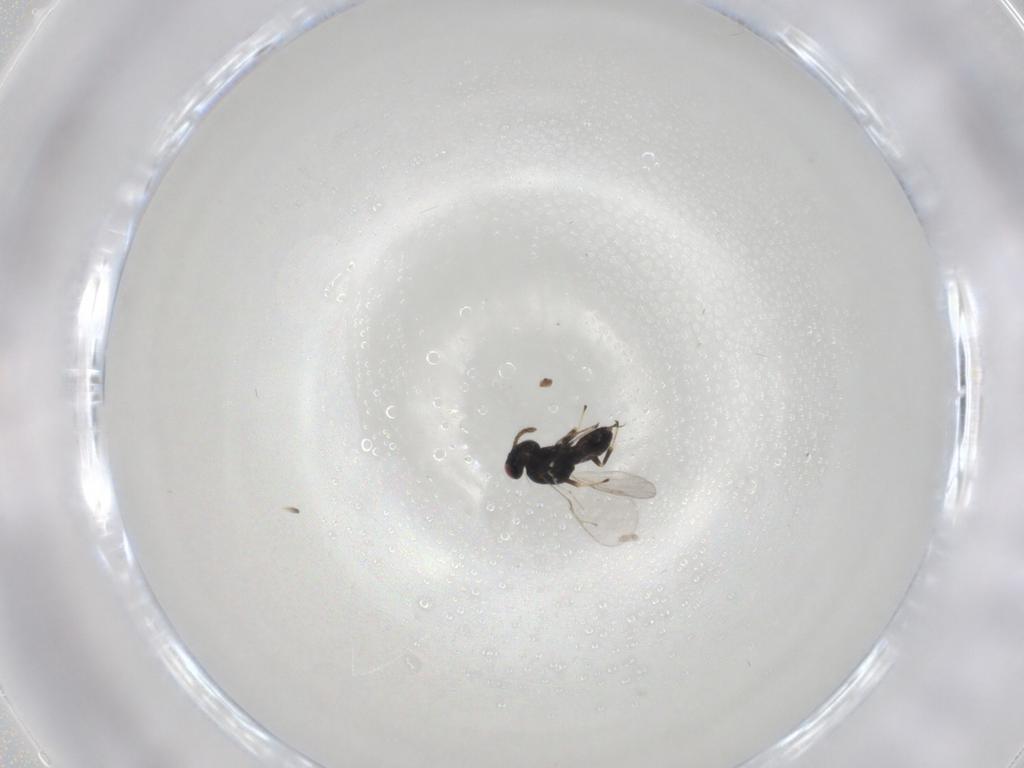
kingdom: Animalia
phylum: Arthropoda
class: Insecta
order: Hymenoptera
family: Pteromalidae
